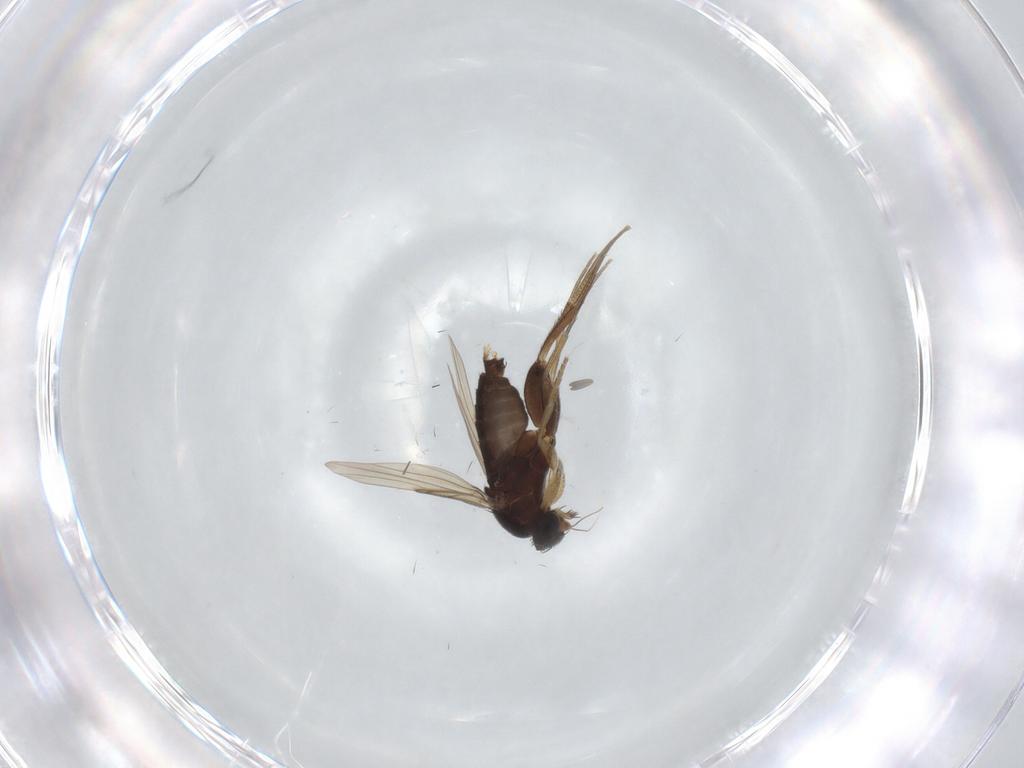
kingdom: Animalia
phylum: Arthropoda
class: Insecta
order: Diptera
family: Phoridae
